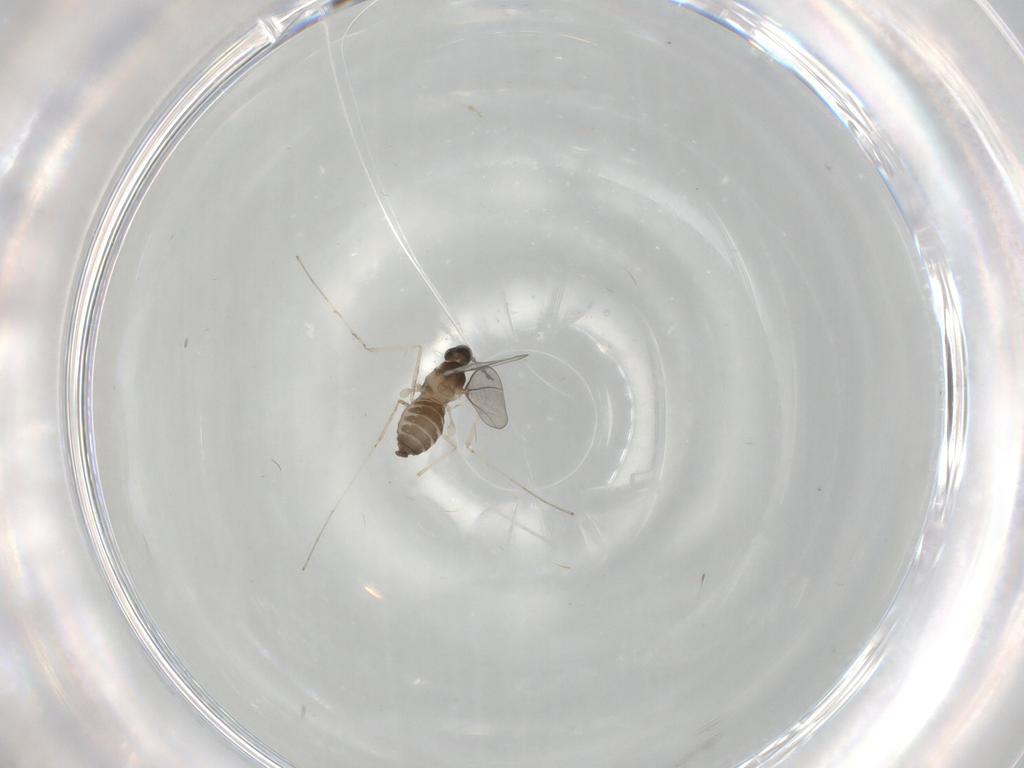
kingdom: Animalia
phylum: Arthropoda
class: Insecta
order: Diptera
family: Cecidomyiidae
